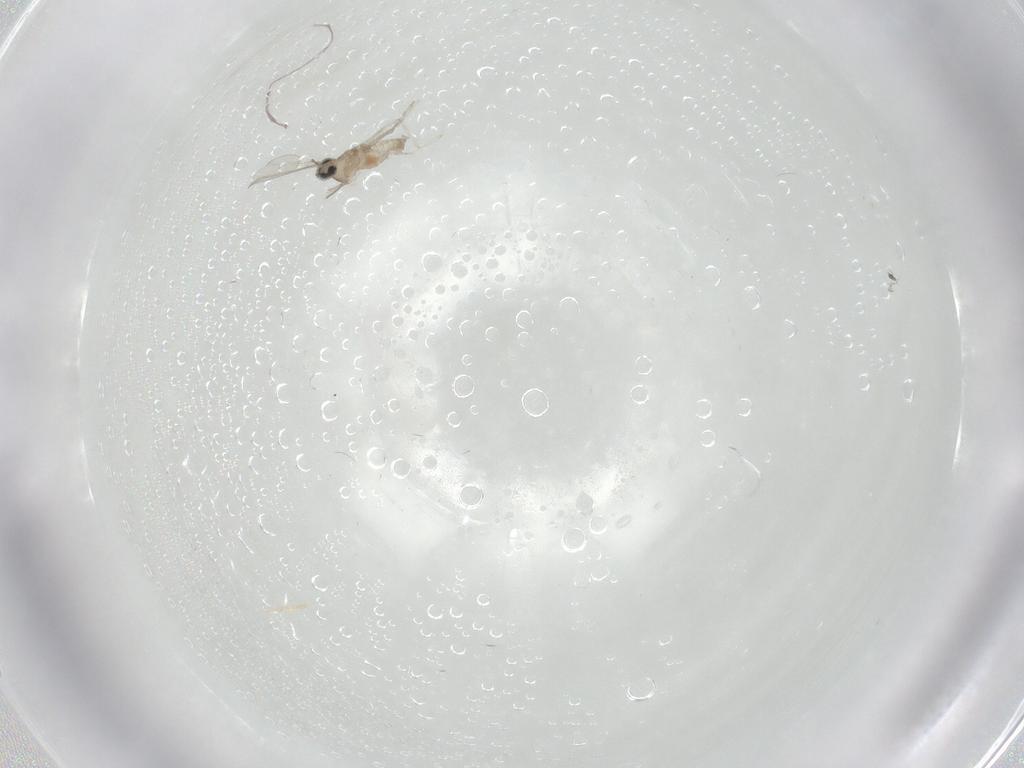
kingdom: Animalia
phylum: Arthropoda
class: Insecta
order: Diptera
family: Cecidomyiidae
